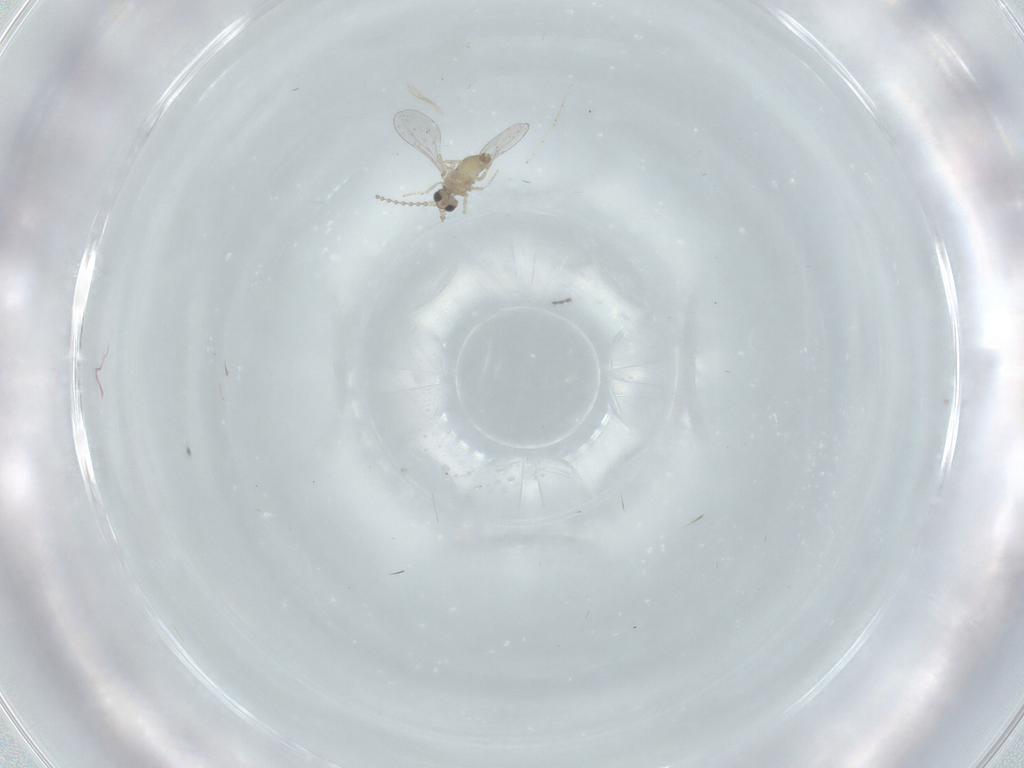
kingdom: Animalia
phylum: Arthropoda
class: Insecta
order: Diptera
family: Cecidomyiidae
